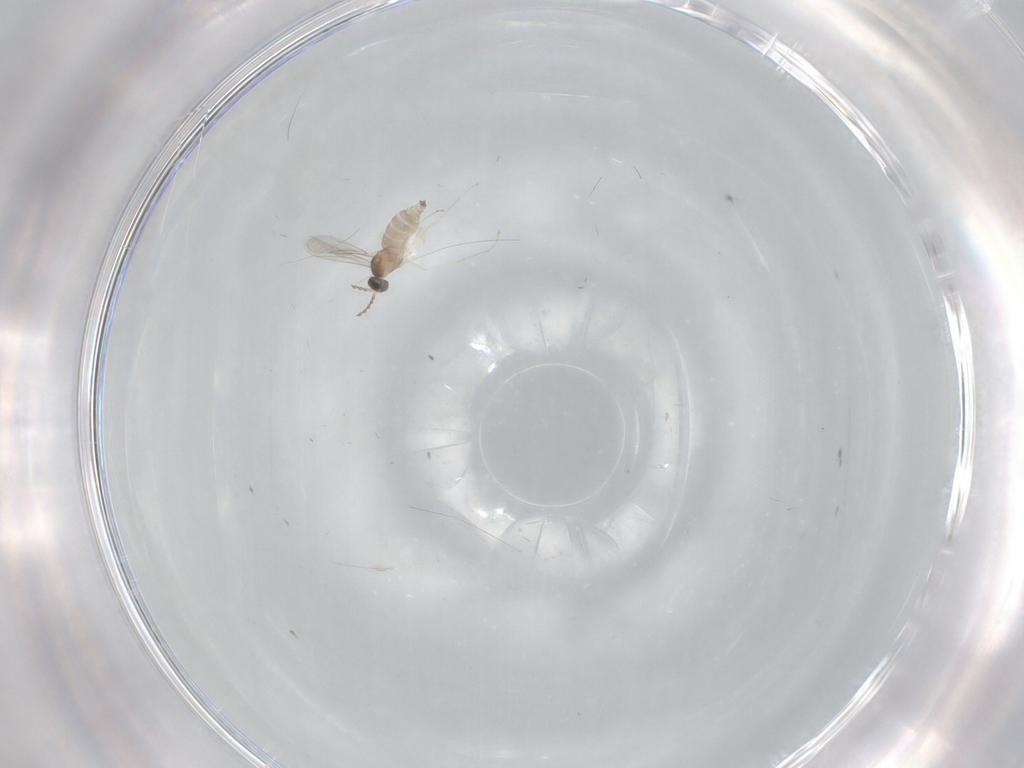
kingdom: Animalia
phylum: Arthropoda
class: Insecta
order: Diptera
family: Cecidomyiidae
